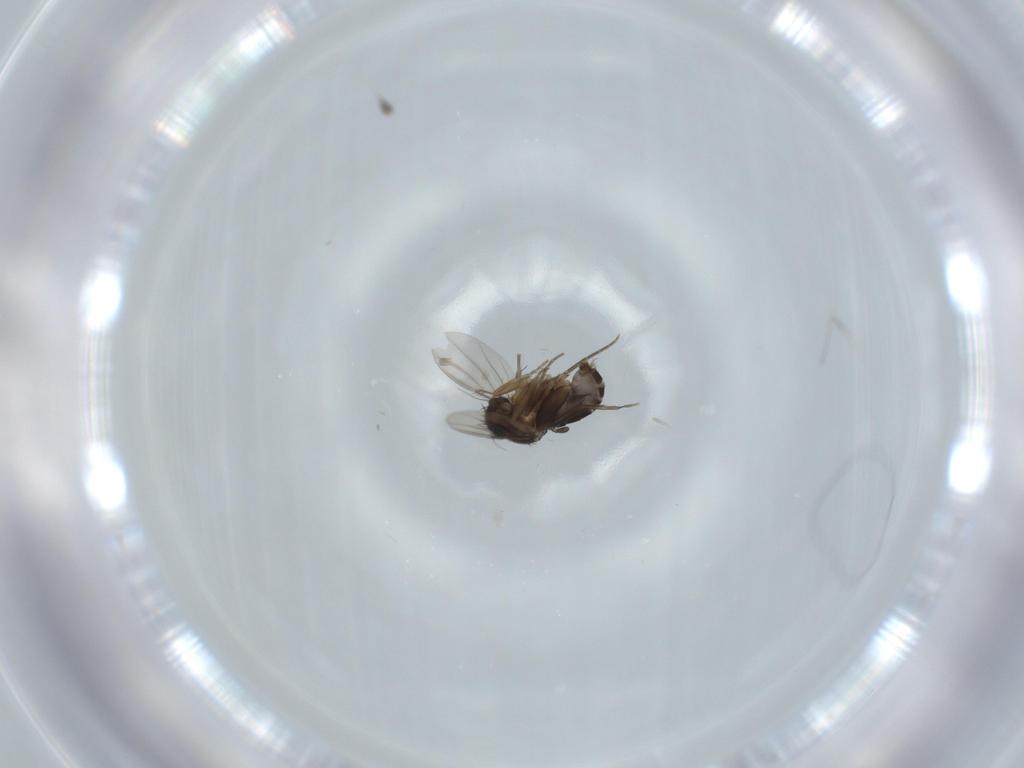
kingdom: Animalia
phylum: Arthropoda
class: Insecta
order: Diptera
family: Phoridae
